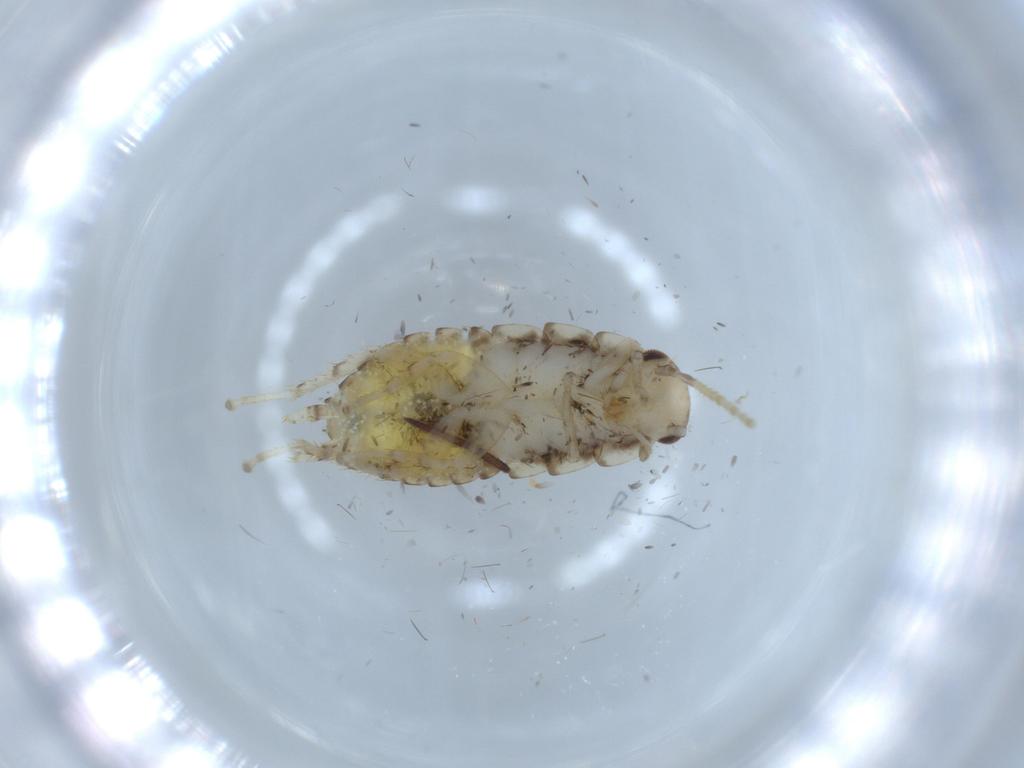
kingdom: Animalia
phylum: Arthropoda
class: Insecta
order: Blattodea
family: Ectobiidae
